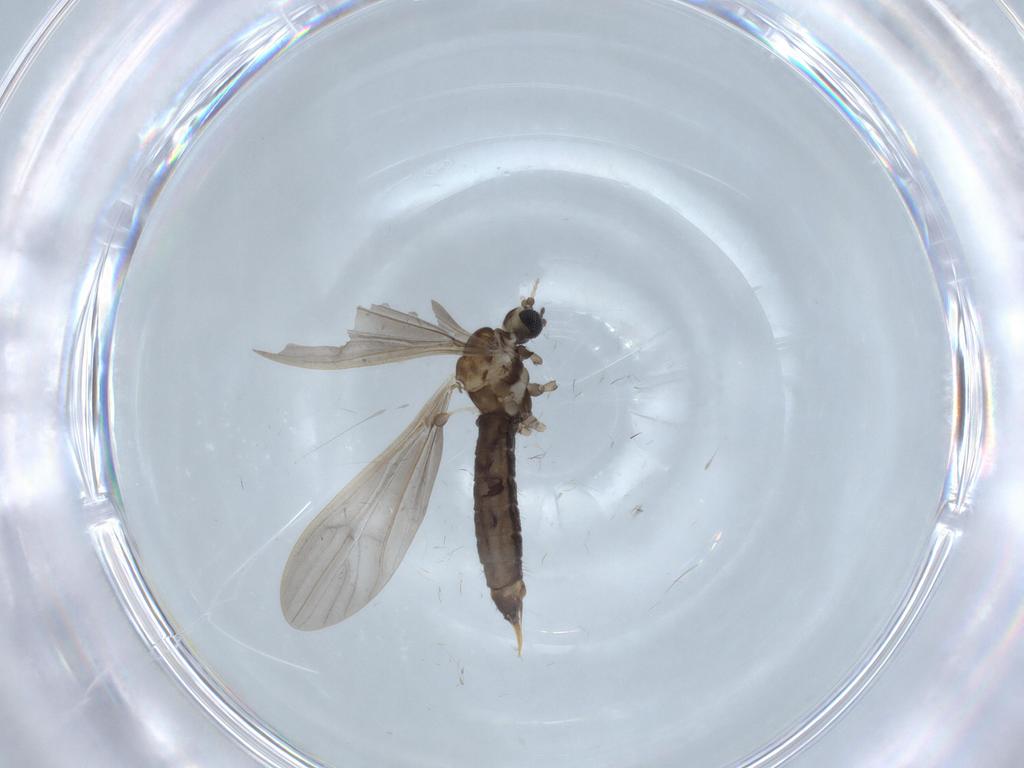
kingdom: Animalia
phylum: Arthropoda
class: Insecta
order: Diptera
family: Limoniidae
